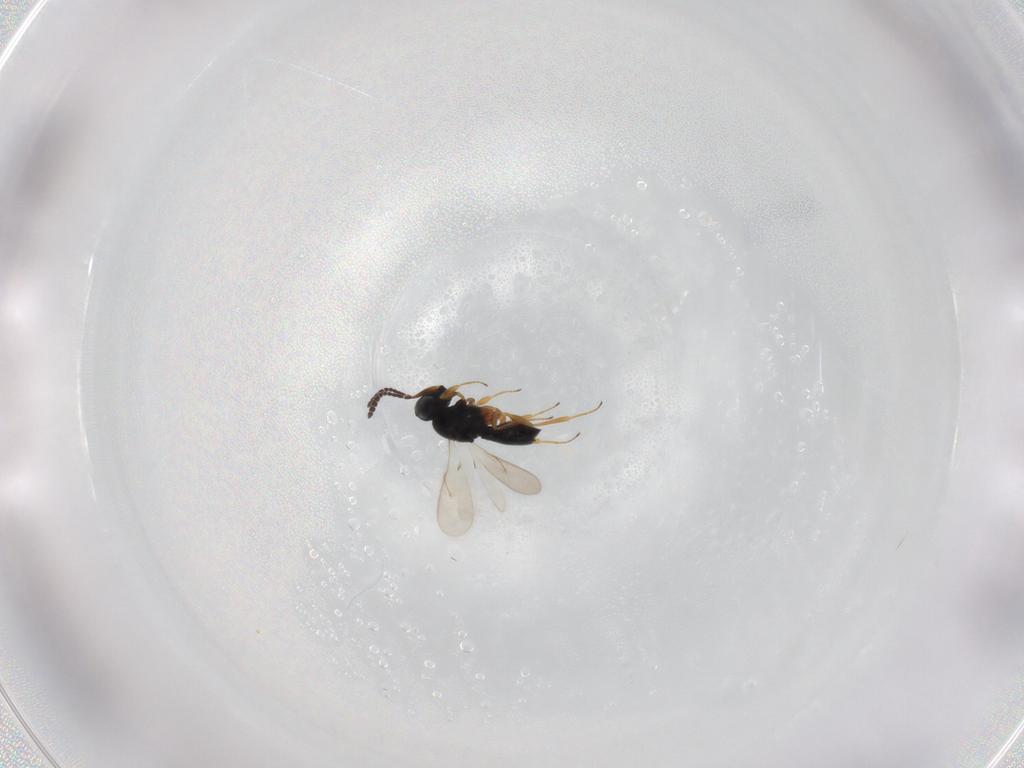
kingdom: Animalia
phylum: Arthropoda
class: Insecta
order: Hymenoptera
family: Scelionidae
